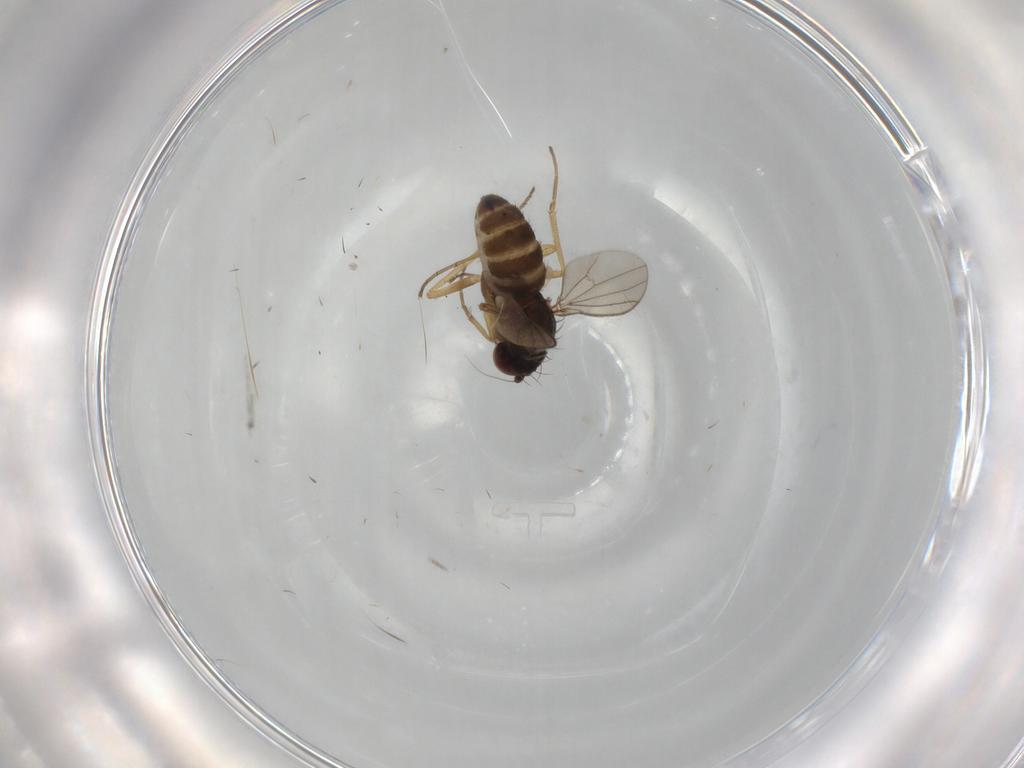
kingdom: Animalia
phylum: Arthropoda
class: Insecta
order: Diptera
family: Dolichopodidae
